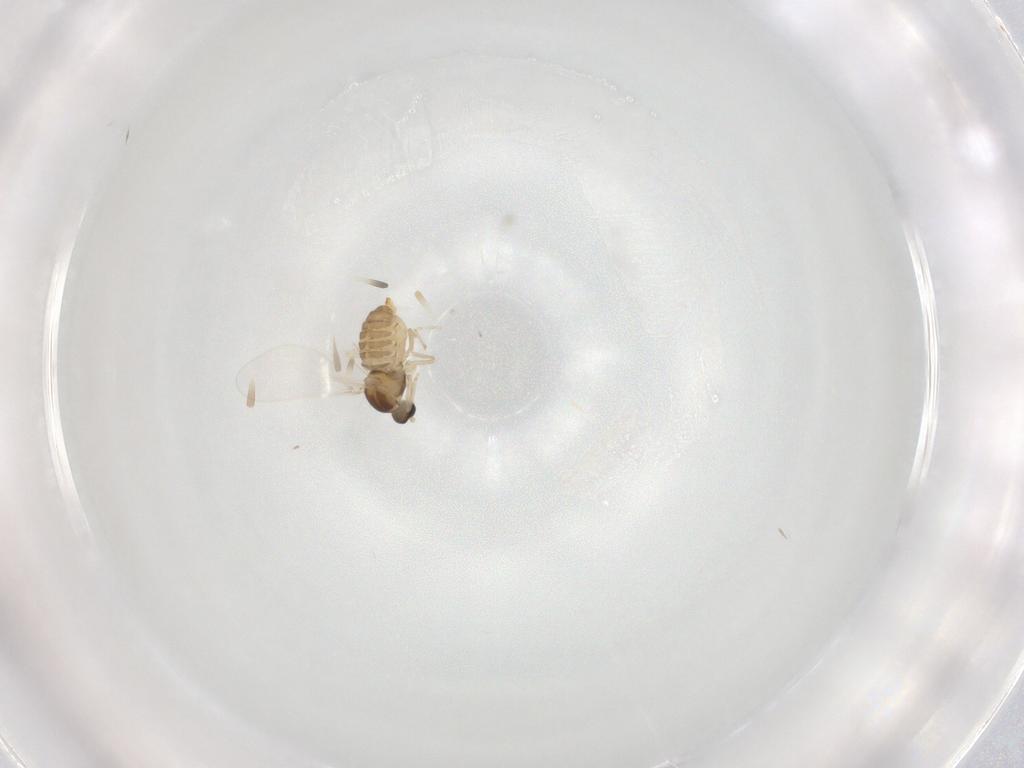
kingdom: Animalia
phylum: Arthropoda
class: Insecta
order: Diptera
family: Cecidomyiidae
